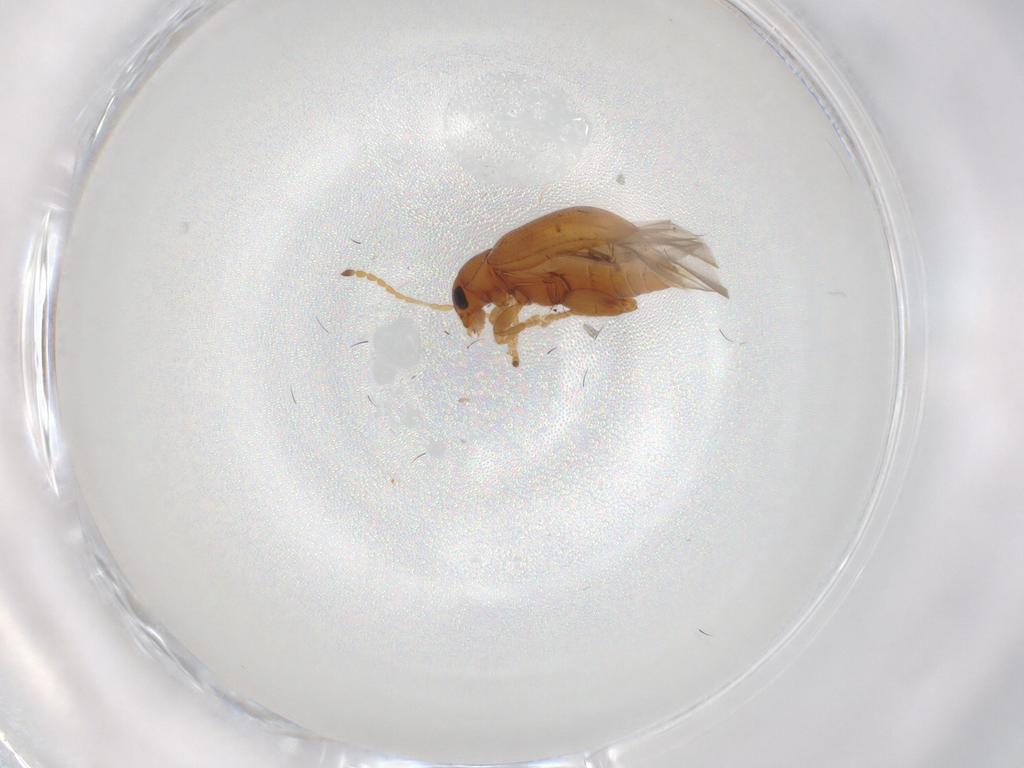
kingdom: Animalia
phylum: Arthropoda
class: Insecta
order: Coleoptera
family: Chrysomelidae
